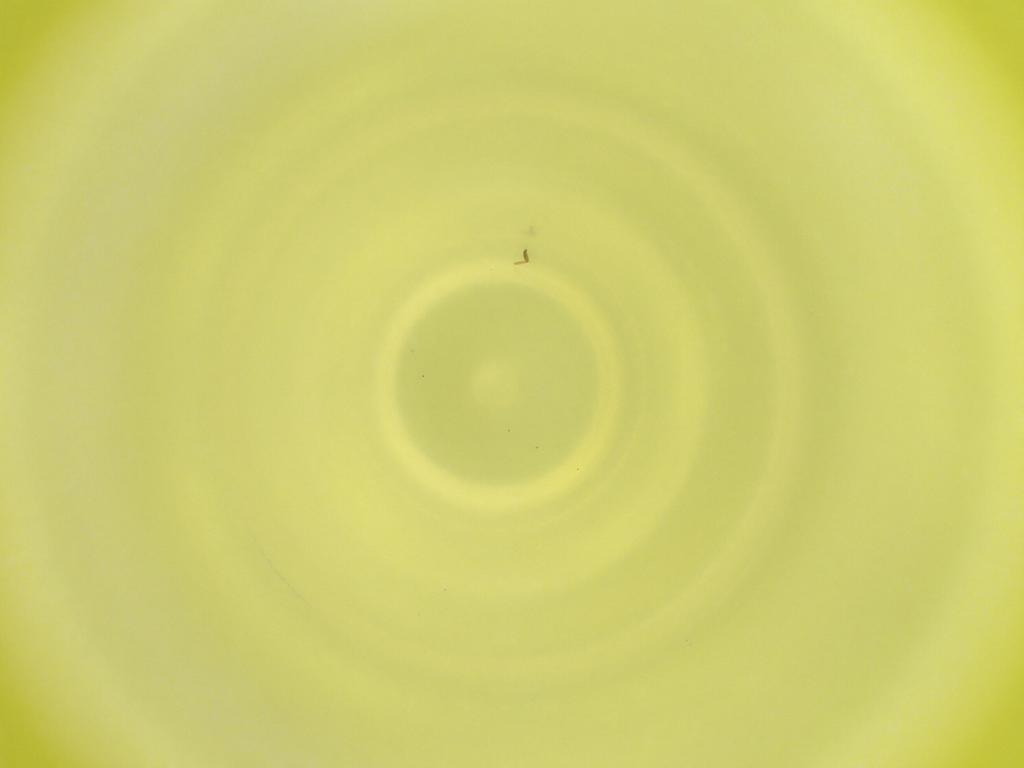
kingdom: Animalia
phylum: Arthropoda
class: Insecta
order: Diptera
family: Cecidomyiidae
